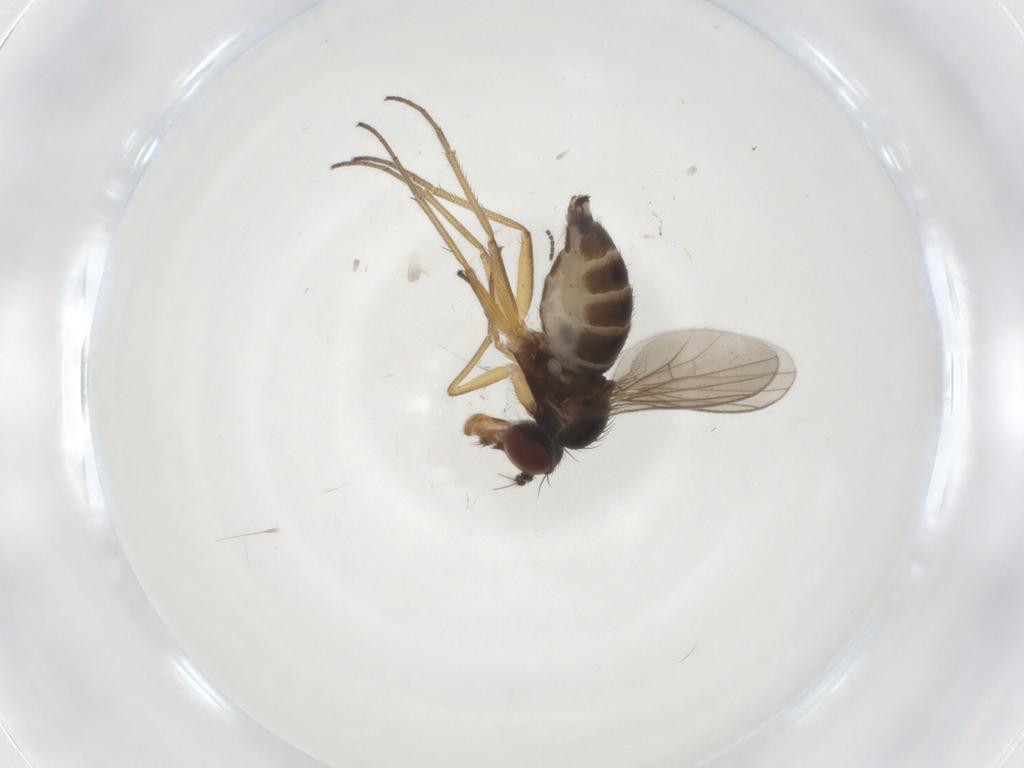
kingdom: Animalia
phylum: Arthropoda
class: Insecta
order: Diptera
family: Dolichopodidae
